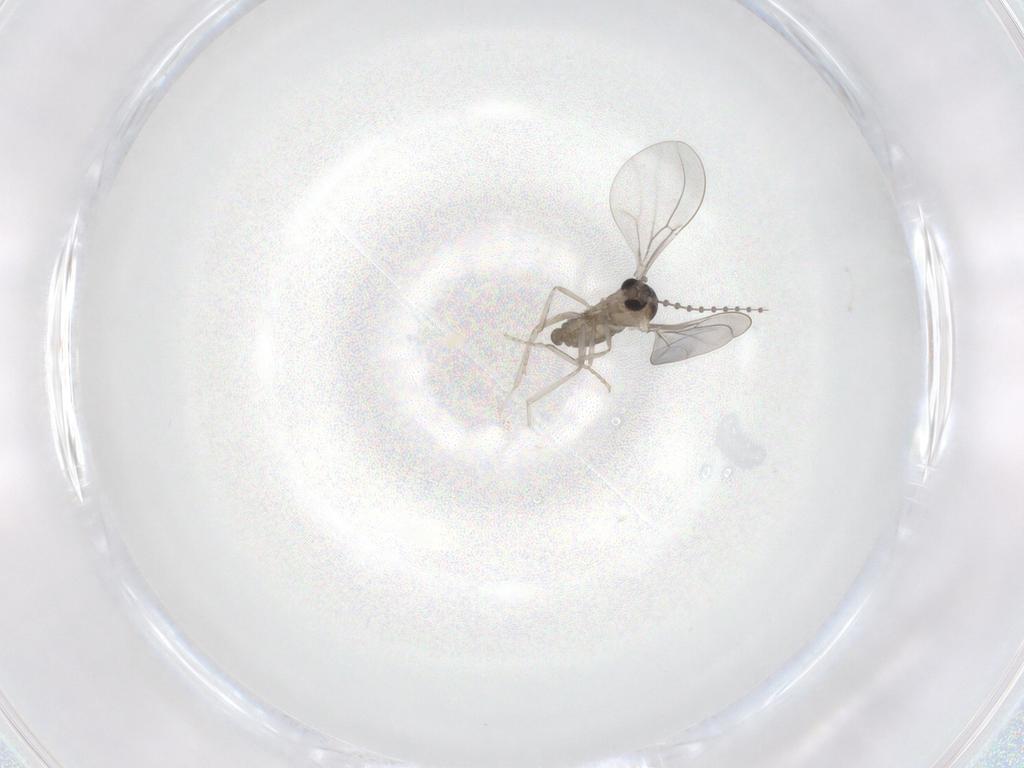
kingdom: Animalia
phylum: Arthropoda
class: Insecta
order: Diptera
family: Cecidomyiidae
